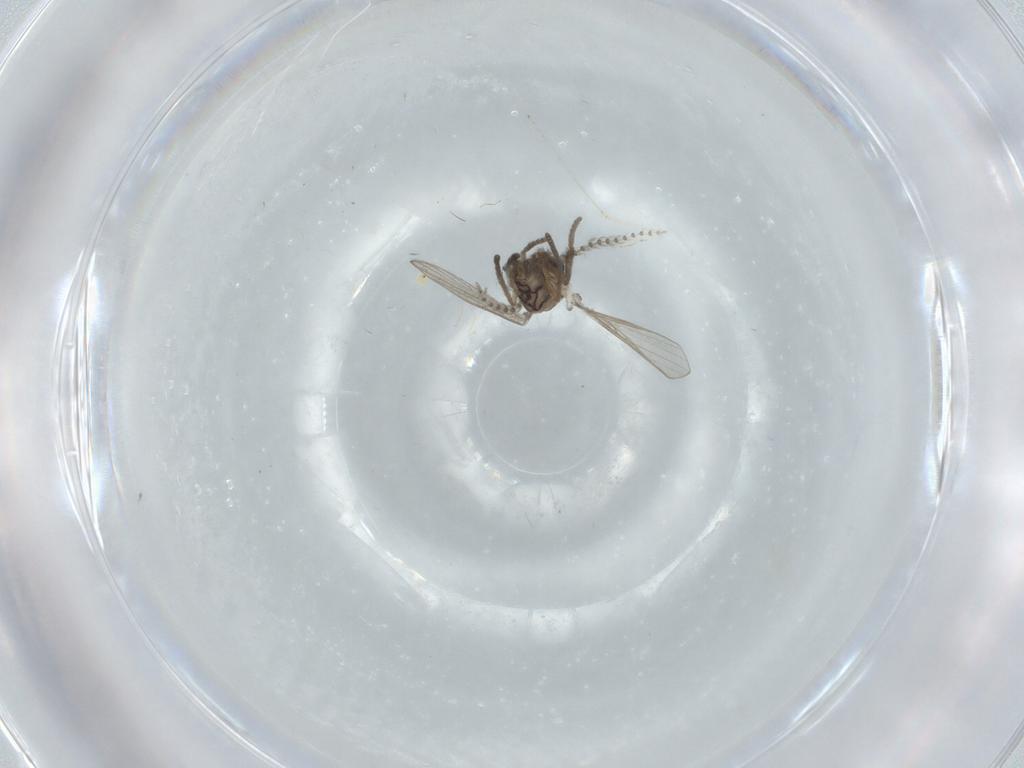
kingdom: Animalia
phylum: Arthropoda
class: Insecta
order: Diptera
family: Psychodidae
